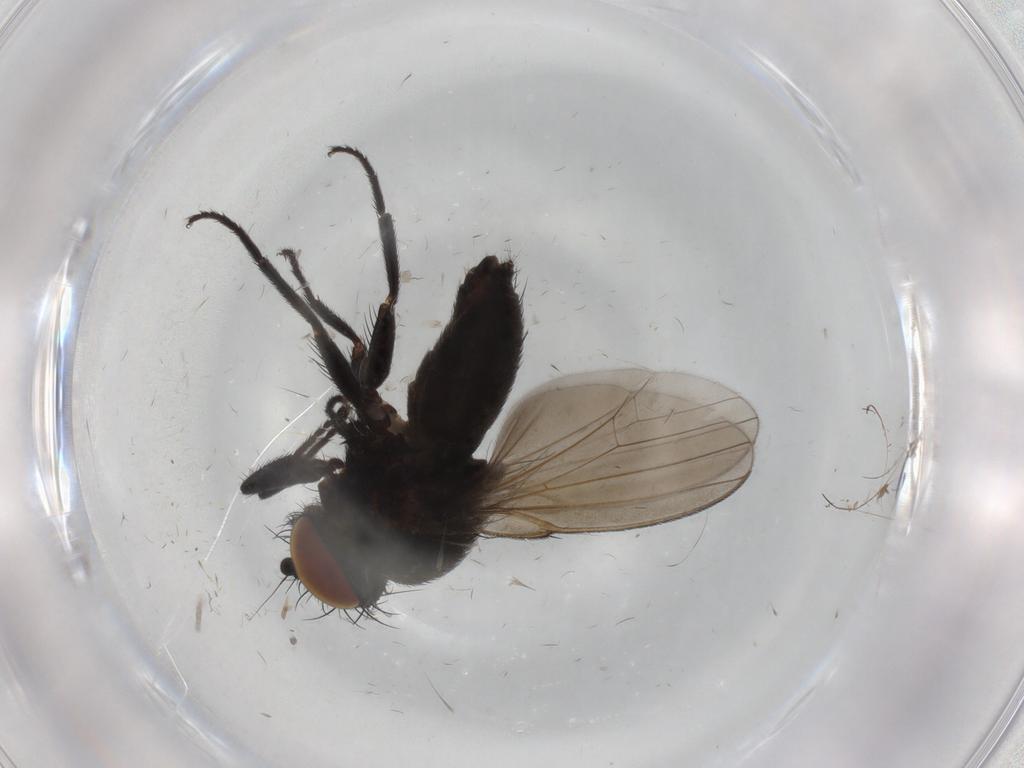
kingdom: Animalia
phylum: Arthropoda
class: Insecta
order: Diptera
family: Milichiidae
